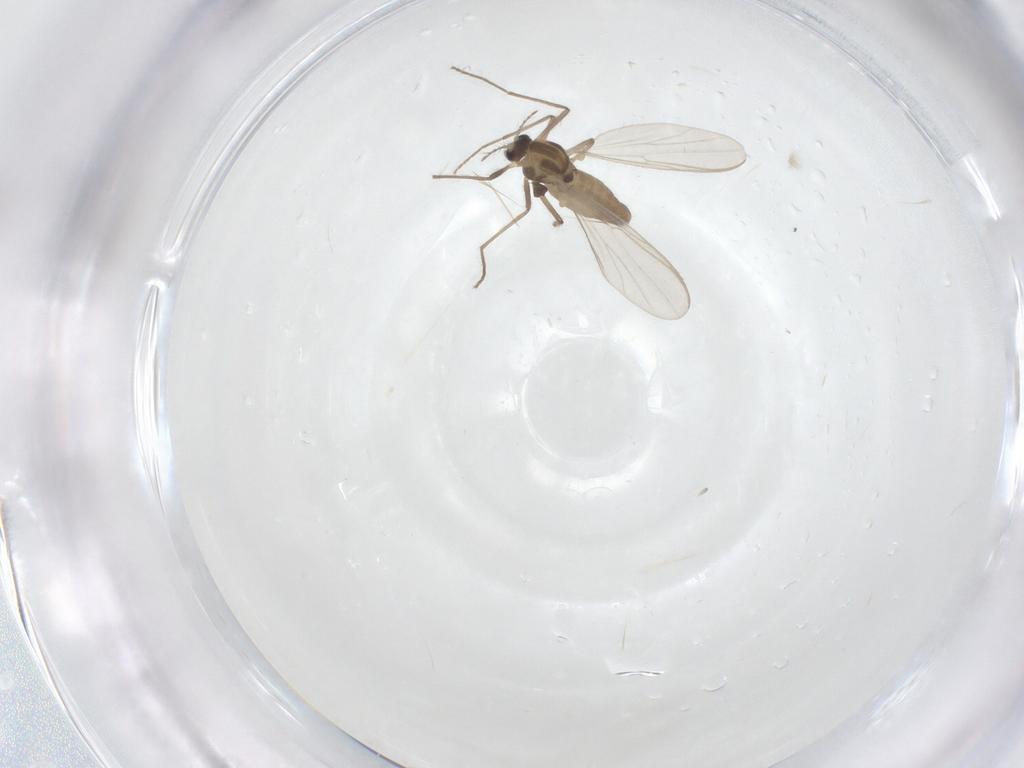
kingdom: Animalia
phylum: Arthropoda
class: Insecta
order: Diptera
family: Chironomidae
